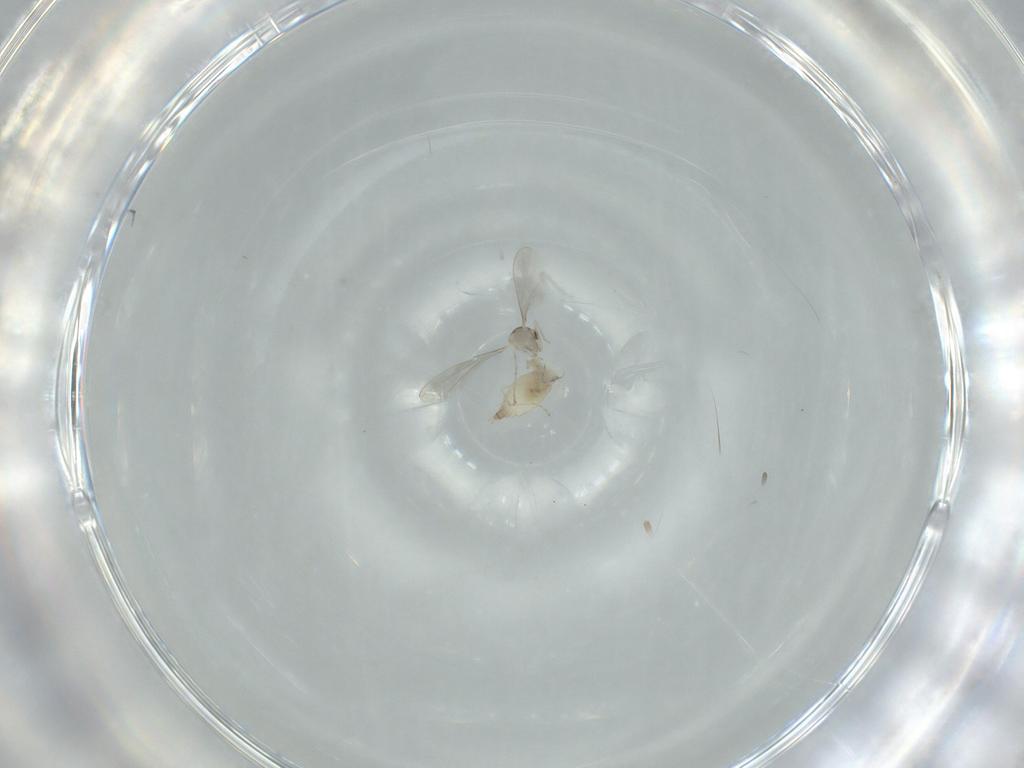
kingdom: Animalia
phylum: Arthropoda
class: Insecta
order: Diptera
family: Cecidomyiidae
